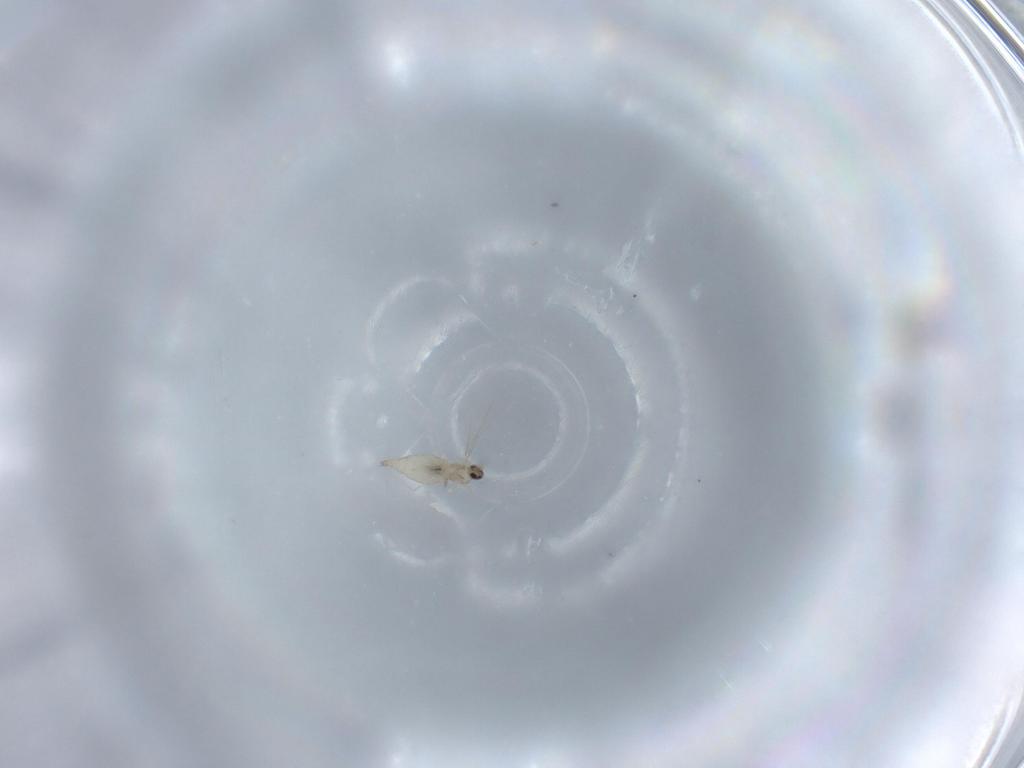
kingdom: Animalia
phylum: Arthropoda
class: Insecta
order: Diptera
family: Cecidomyiidae
